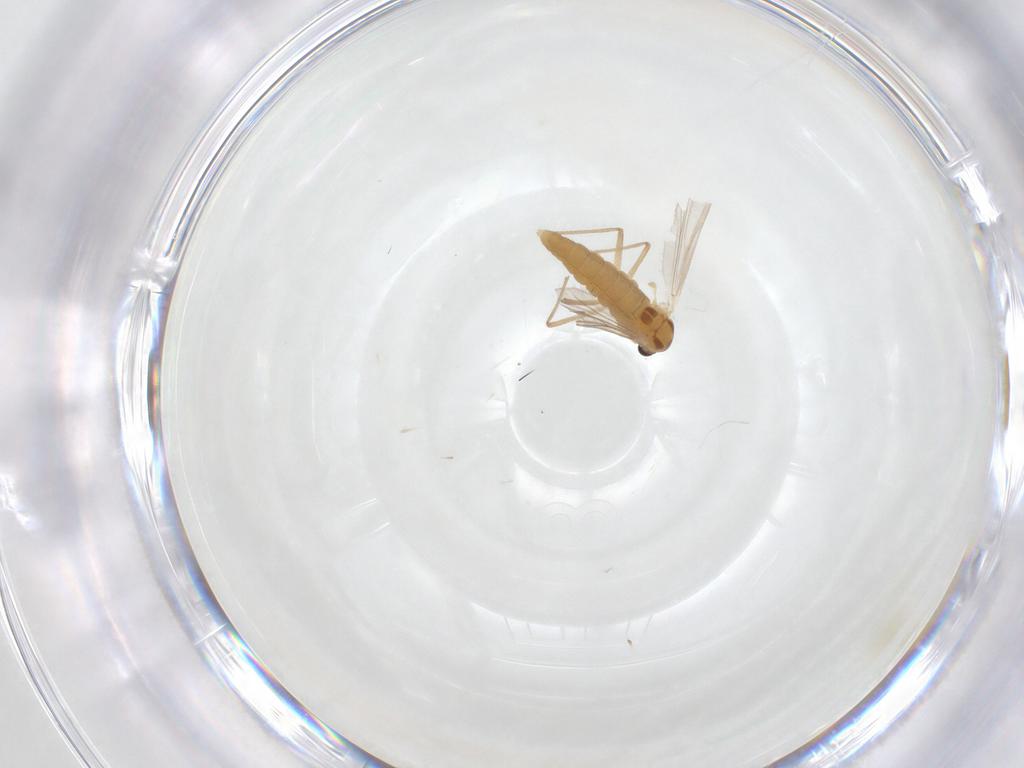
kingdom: Animalia
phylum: Arthropoda
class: Insecta
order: Diptera
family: Chironomidae
